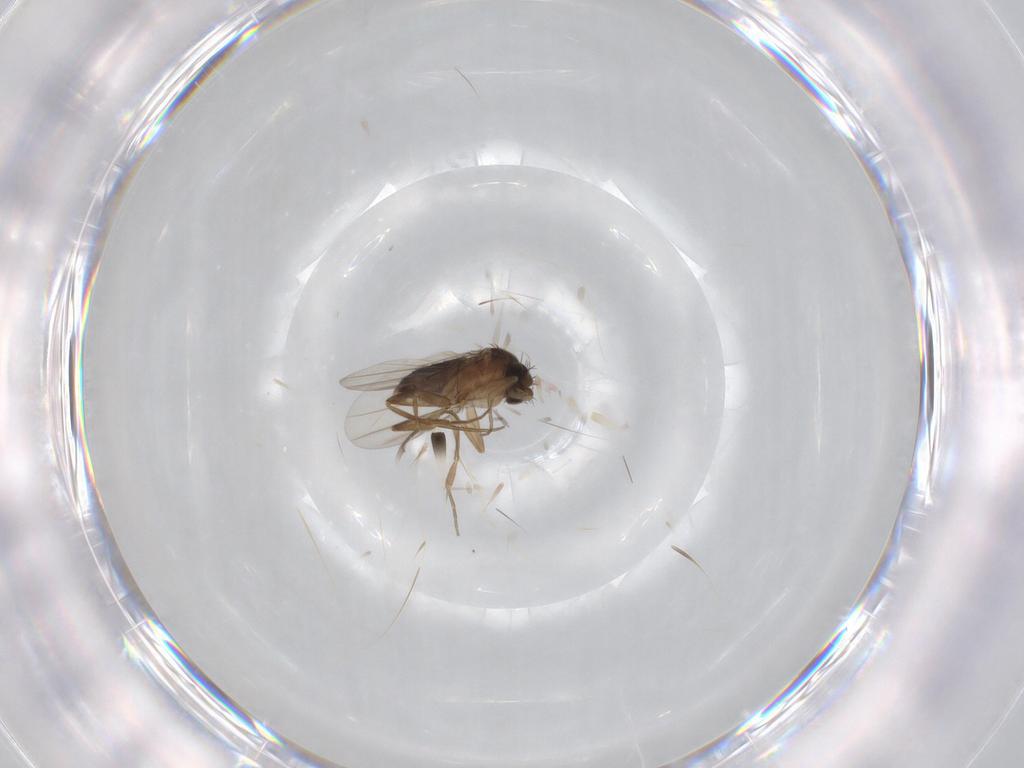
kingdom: Animalia
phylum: Arthropoda
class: Insecta
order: Diptera
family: Phoridae
